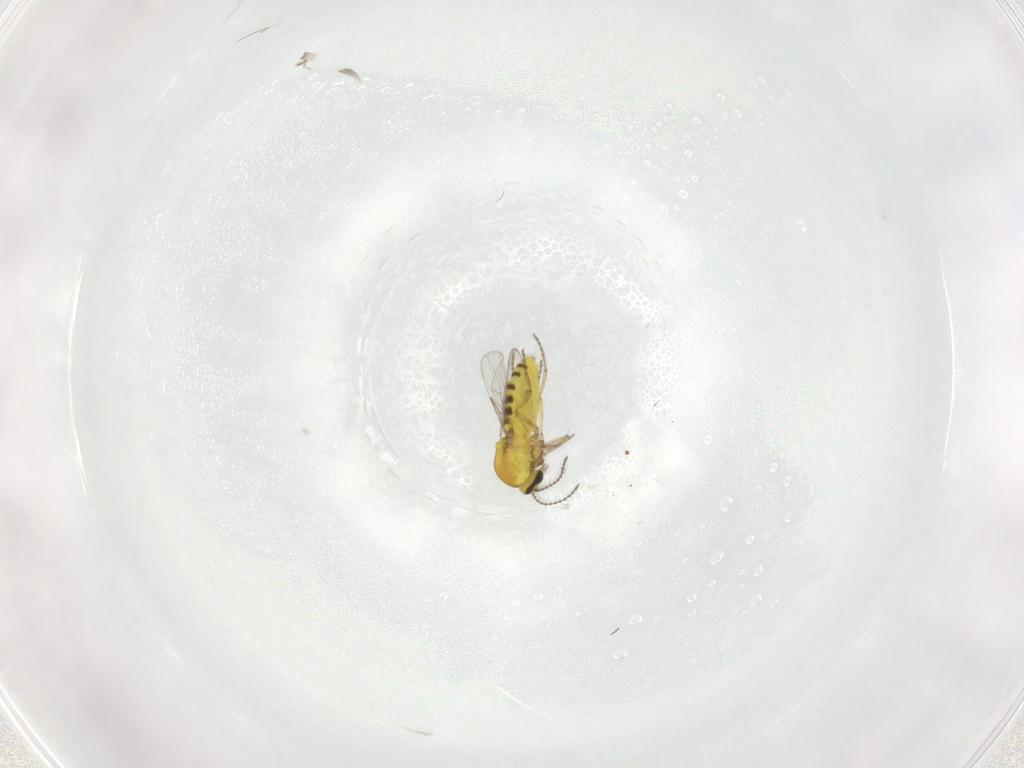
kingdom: Animalia
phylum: Arthropoda
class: Insecta
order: Diptera
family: Ceratopogonidae
